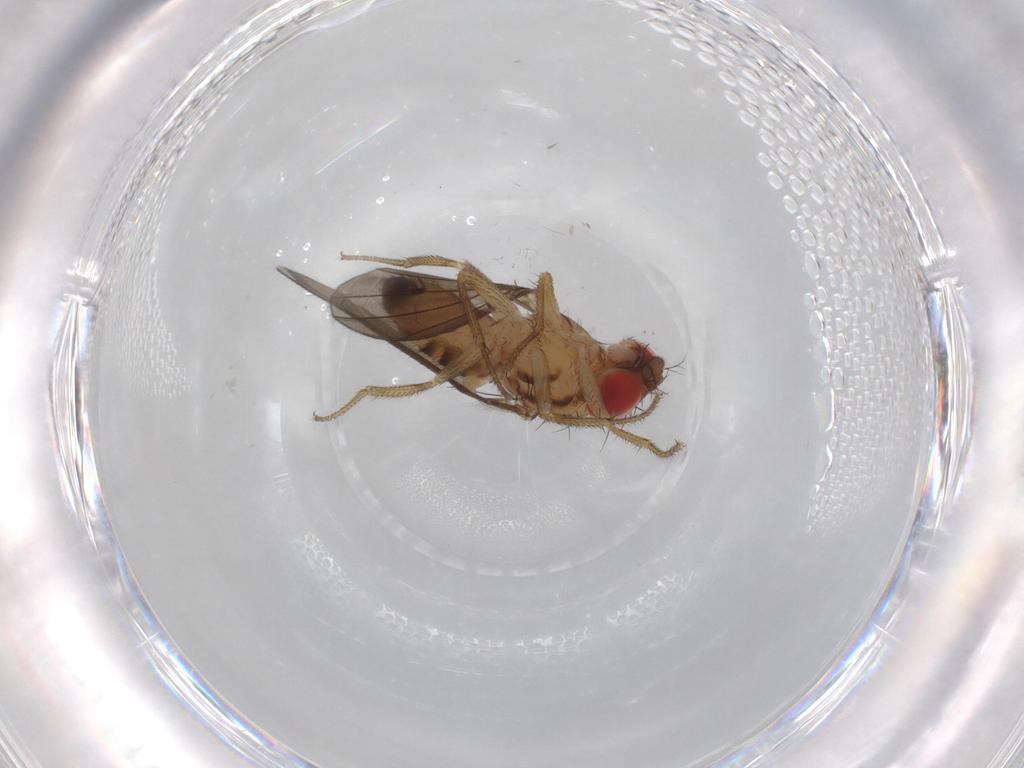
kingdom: Animalia
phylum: Arthropoda
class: Insecta
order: Diptera
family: Drosophilidae
